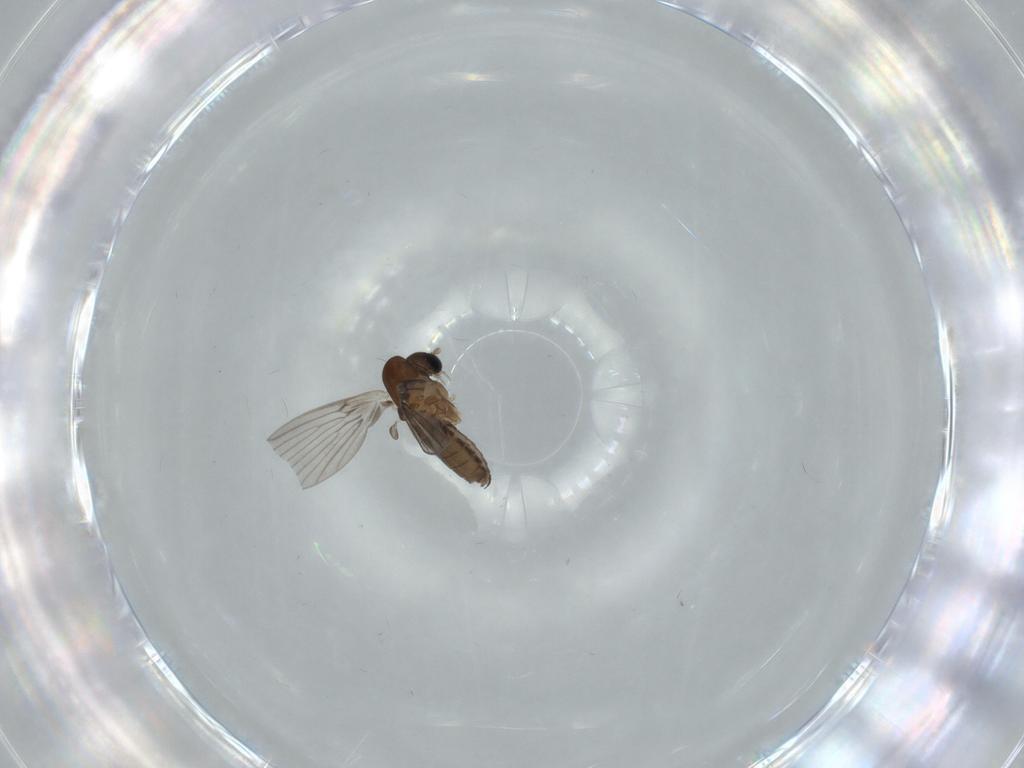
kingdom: Animalia
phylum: Arthropoda
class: Insecta
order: Diptera
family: Psychodidae
